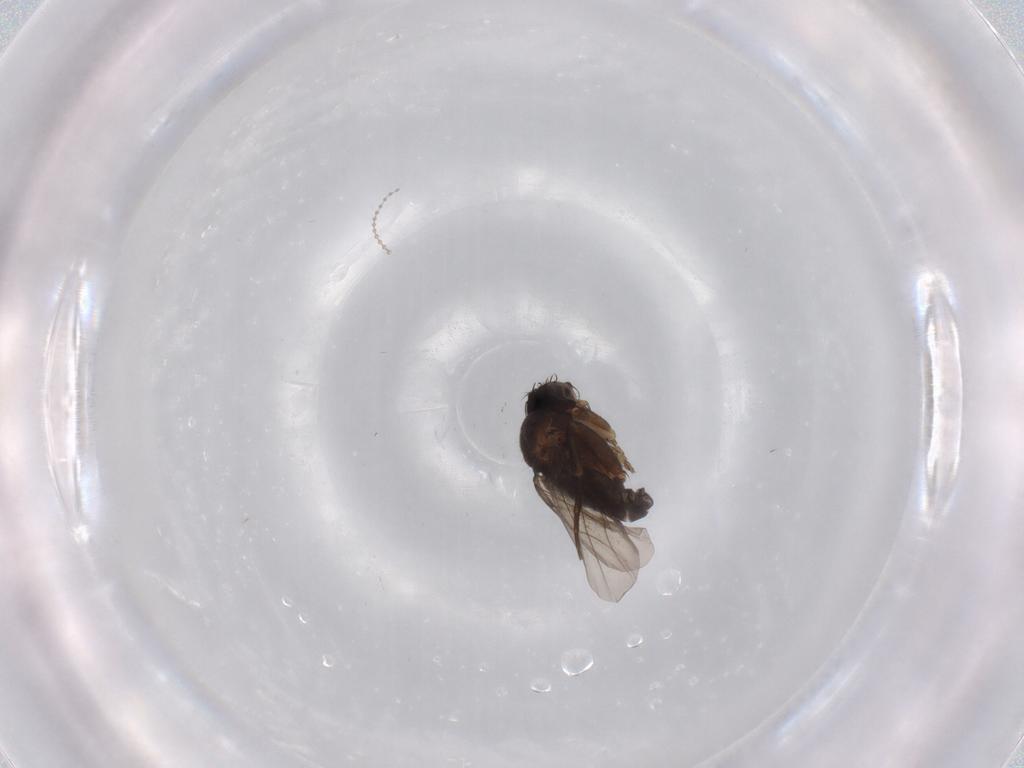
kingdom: Animalia
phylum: Arthropoda
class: Insecta
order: Diptera
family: Phoridae
